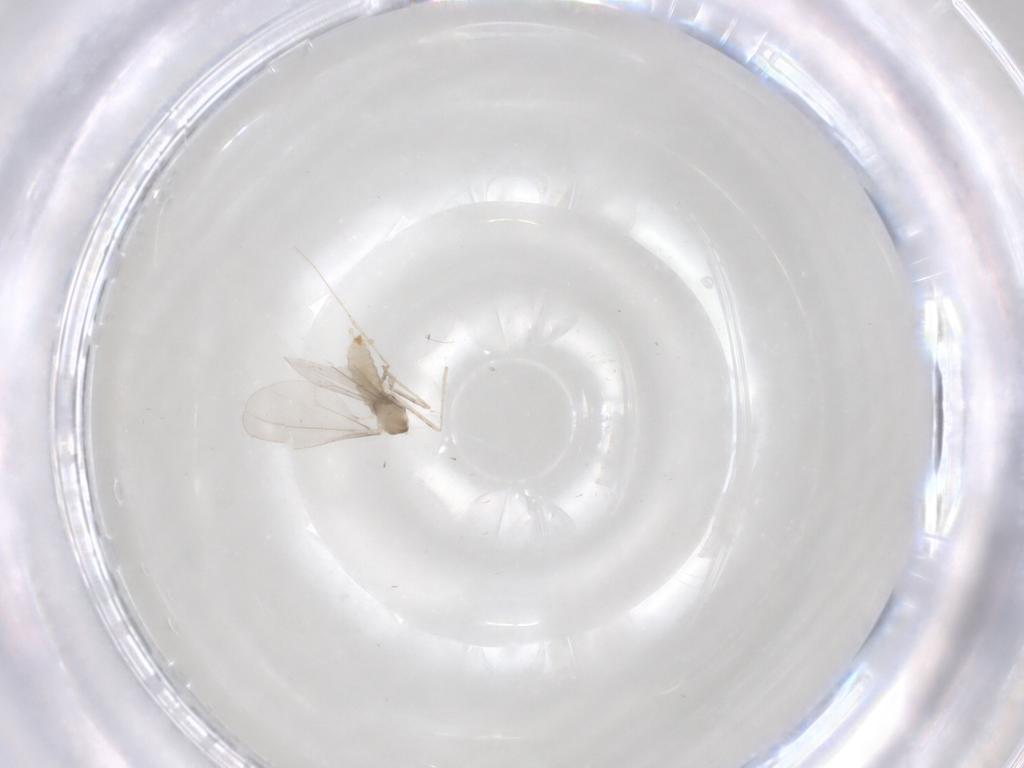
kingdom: Animalia
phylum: Arthropoda
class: Insecta
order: Diptera
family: Ceratopogonidae
